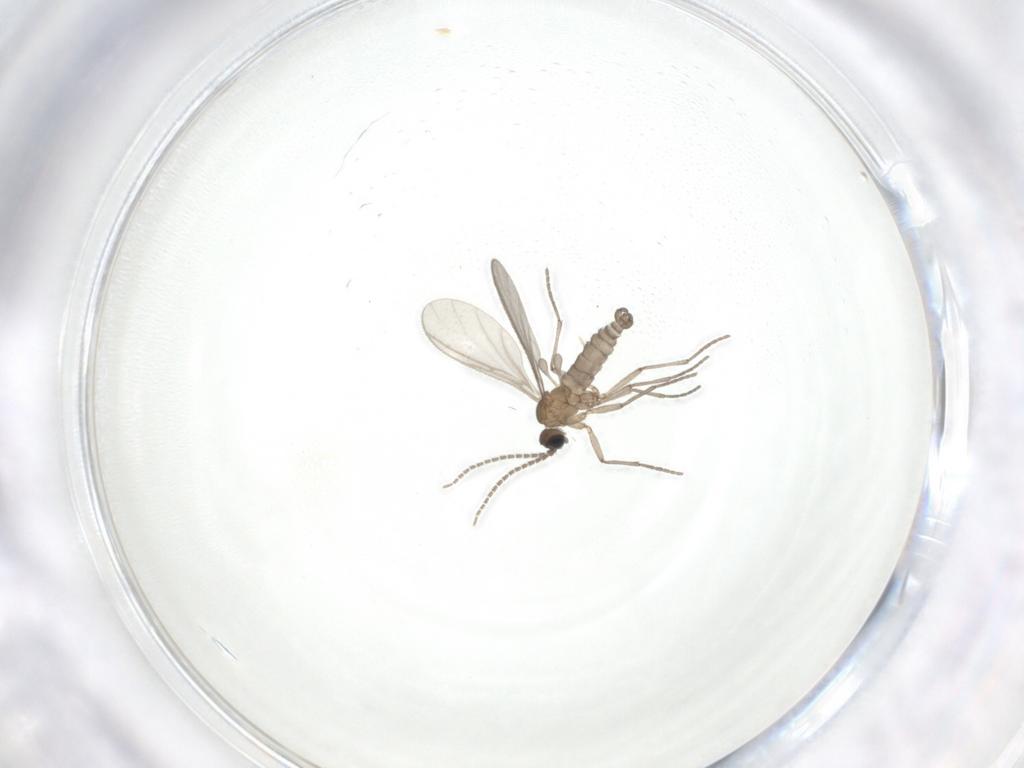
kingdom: Animalia
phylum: Arthropoda
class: Insecta
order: Diptera
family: Sciaridae
